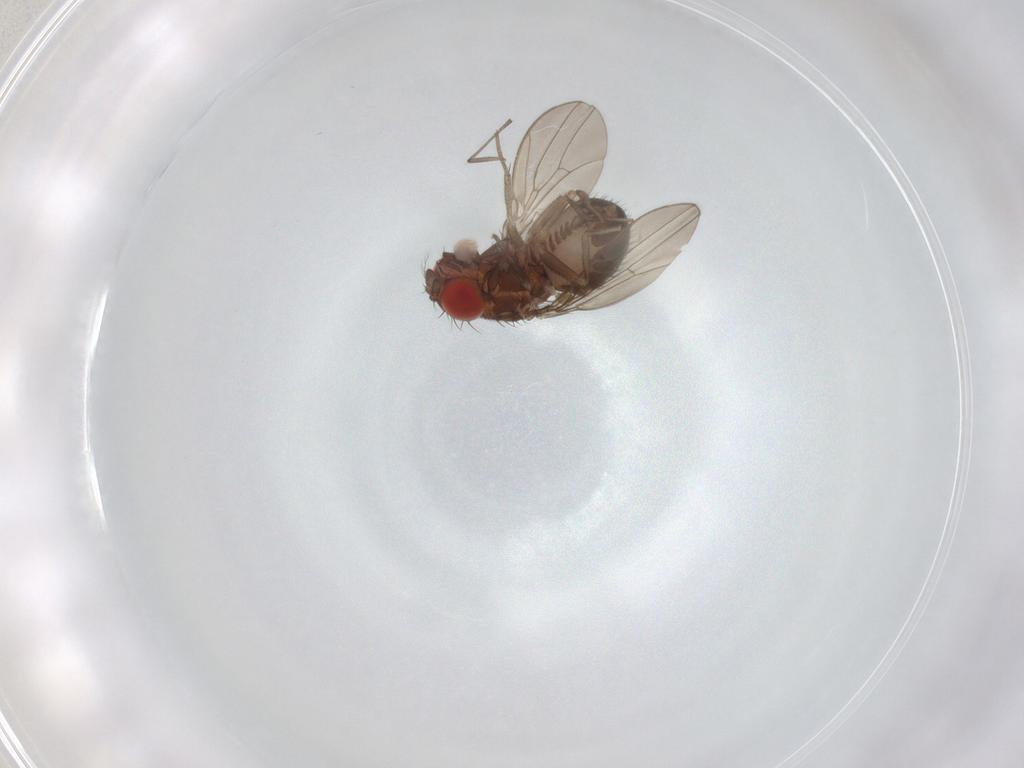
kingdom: Animalia
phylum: Arthropoda
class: Insecta
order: Diptera
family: Drosophilidae
